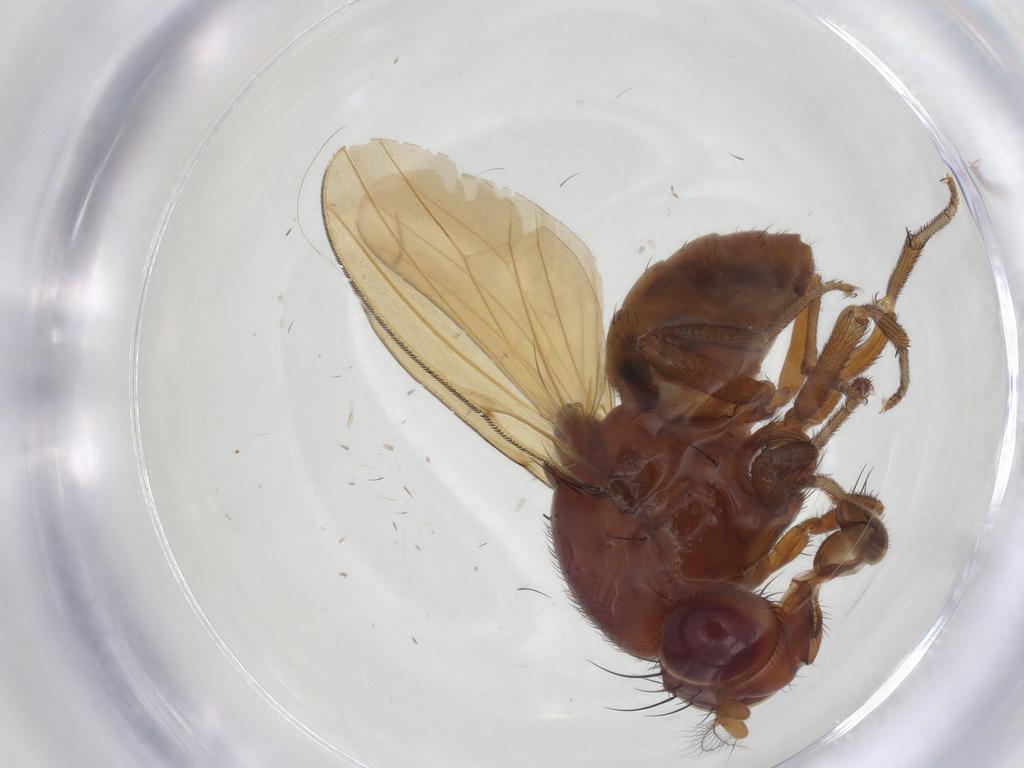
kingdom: Animalia
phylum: Arthropoda
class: Insecta
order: Diptera
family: Lauxaniidae
